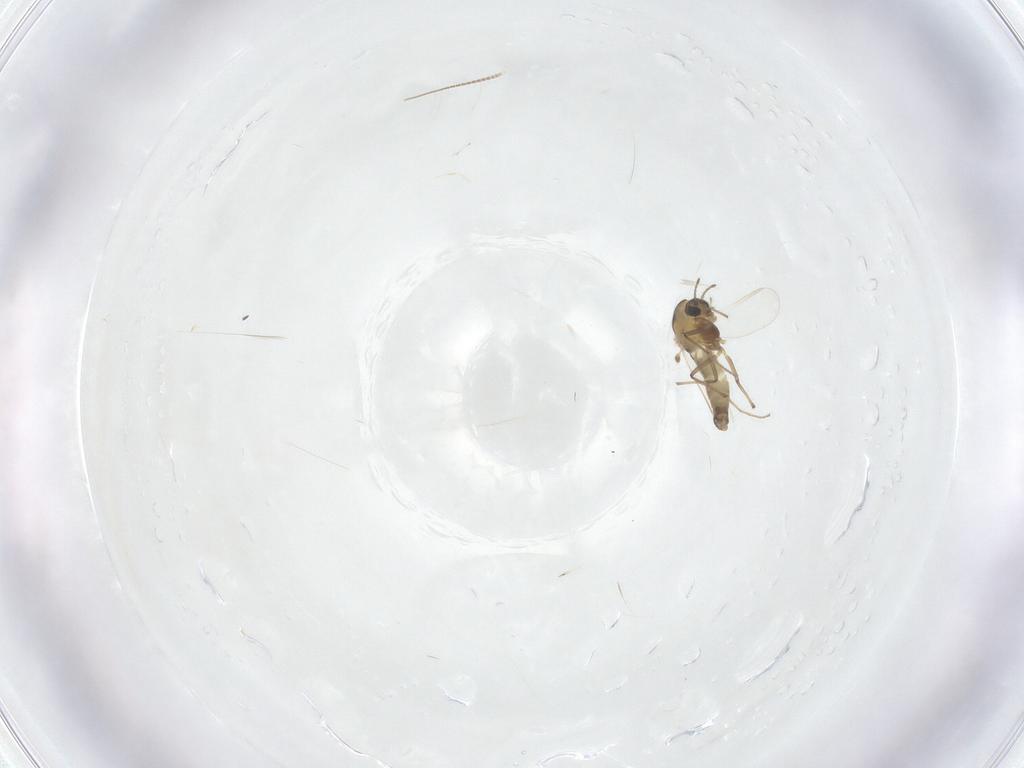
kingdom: Animalia
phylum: Arthropoda
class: Insecta
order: Diptera
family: Chironomidae
